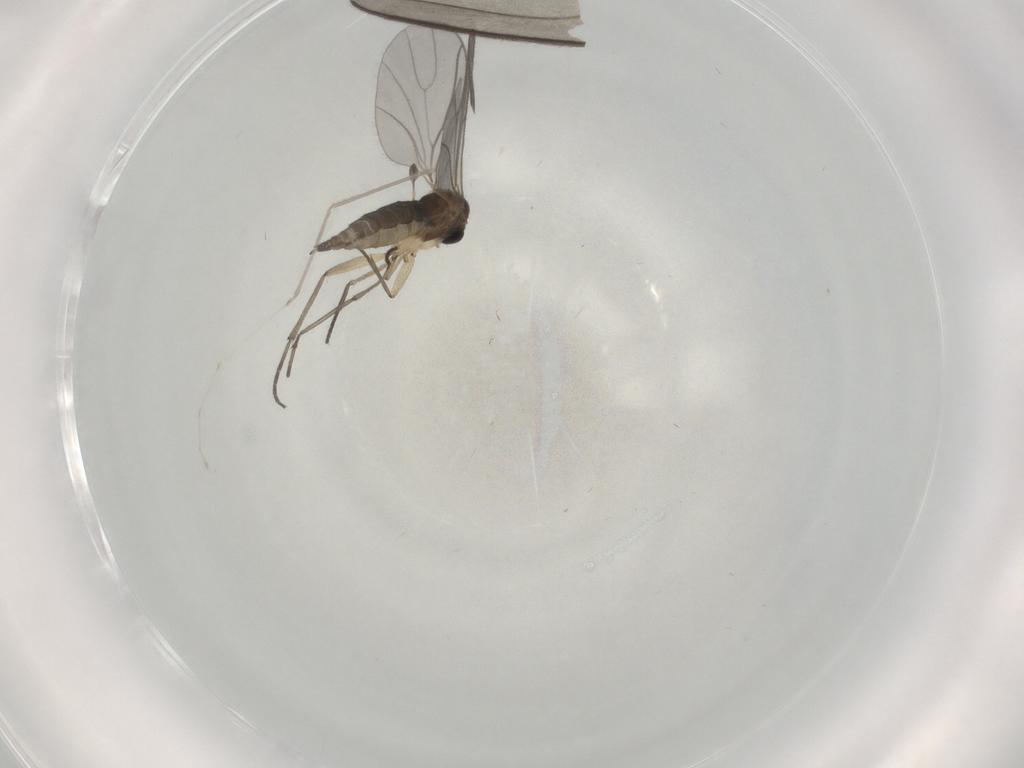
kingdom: Animalia
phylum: Arthropoda
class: Insecta
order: Diptera
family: Sciaridae
